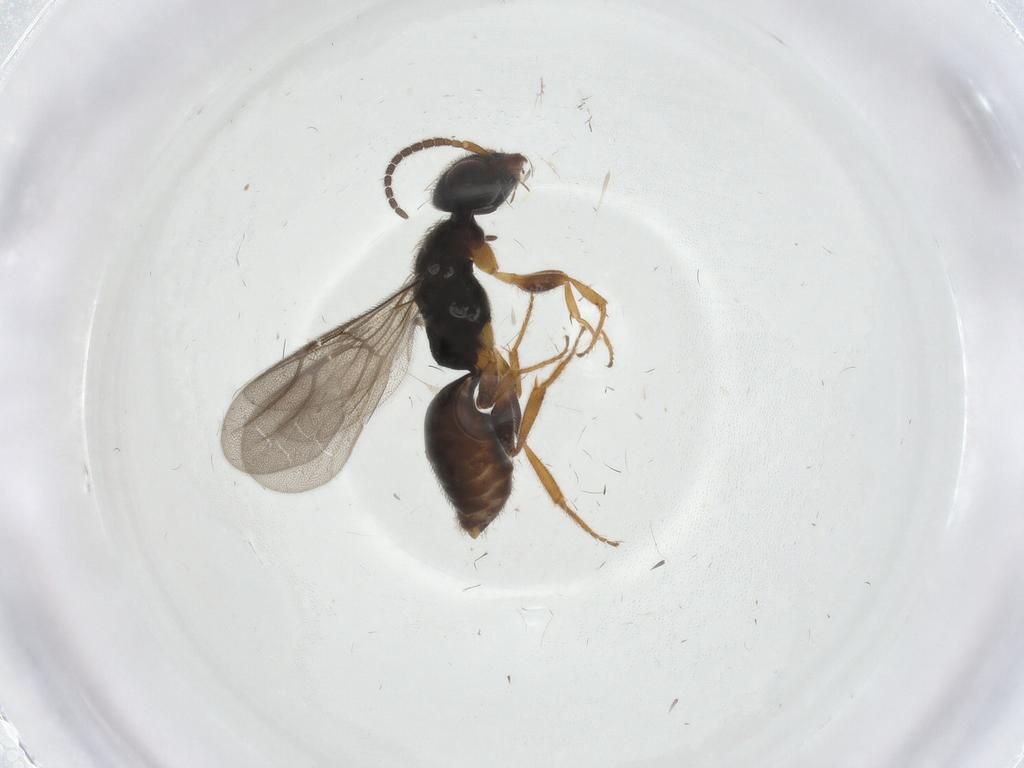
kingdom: Animalia
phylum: Arthropoda
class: Insecta
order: Hymenoptera
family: Bethylidae
